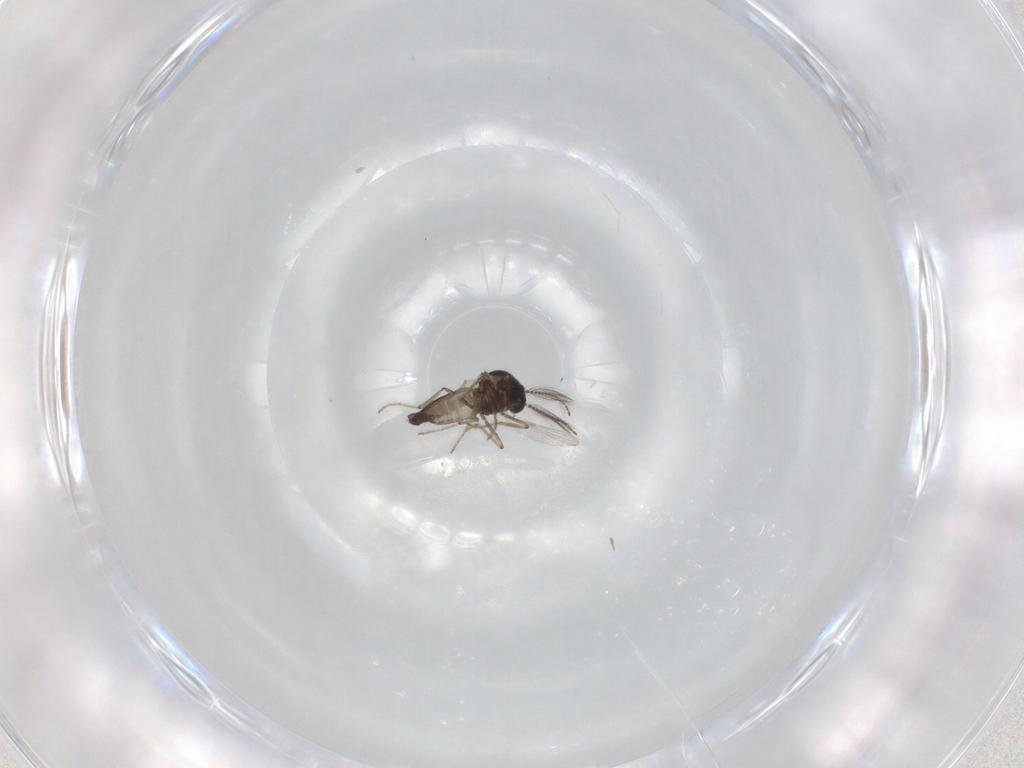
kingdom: Animalia
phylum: Arthropoda
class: Insecta
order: Diptera
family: Ceratopogonidae
